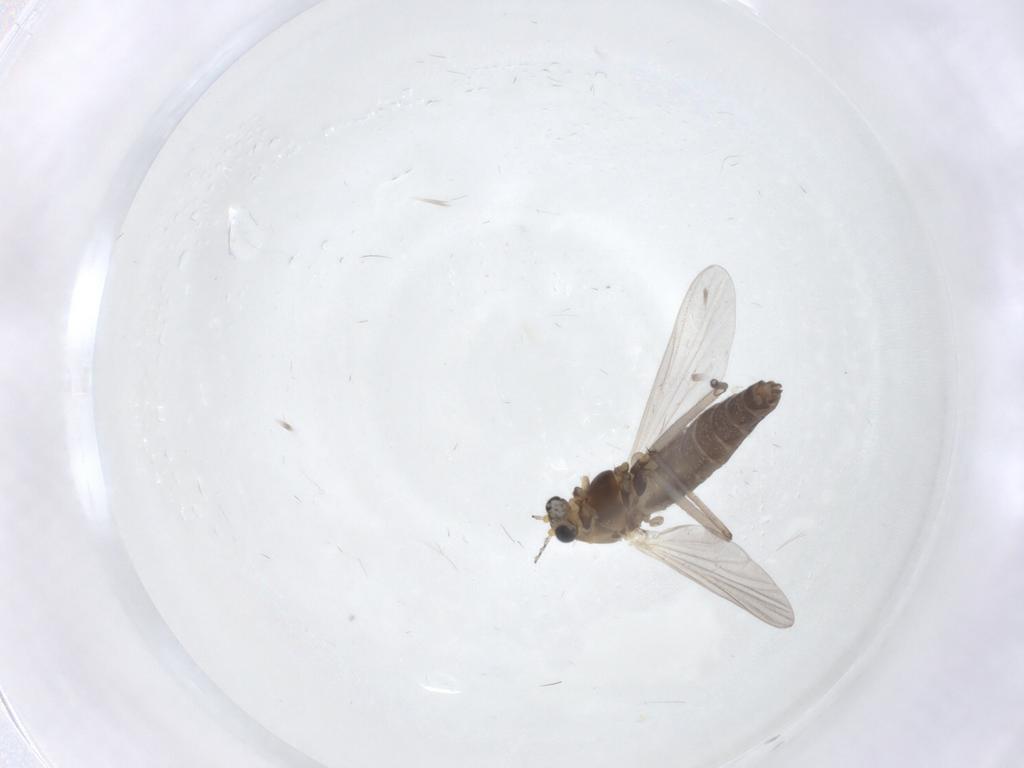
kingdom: Animalia
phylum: Arthropoda
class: Insecta
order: Diptera
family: Chironomidae
